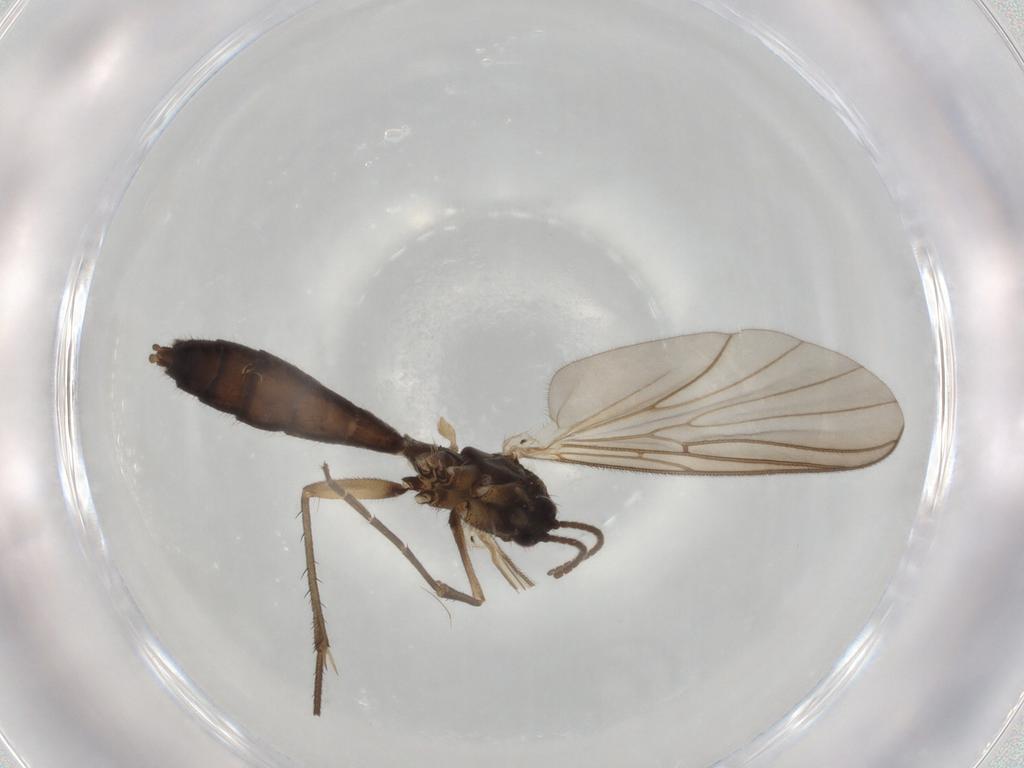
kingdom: Animalia
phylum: Arthropoda
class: Insecta
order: Diptera
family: Mycetophilidae
